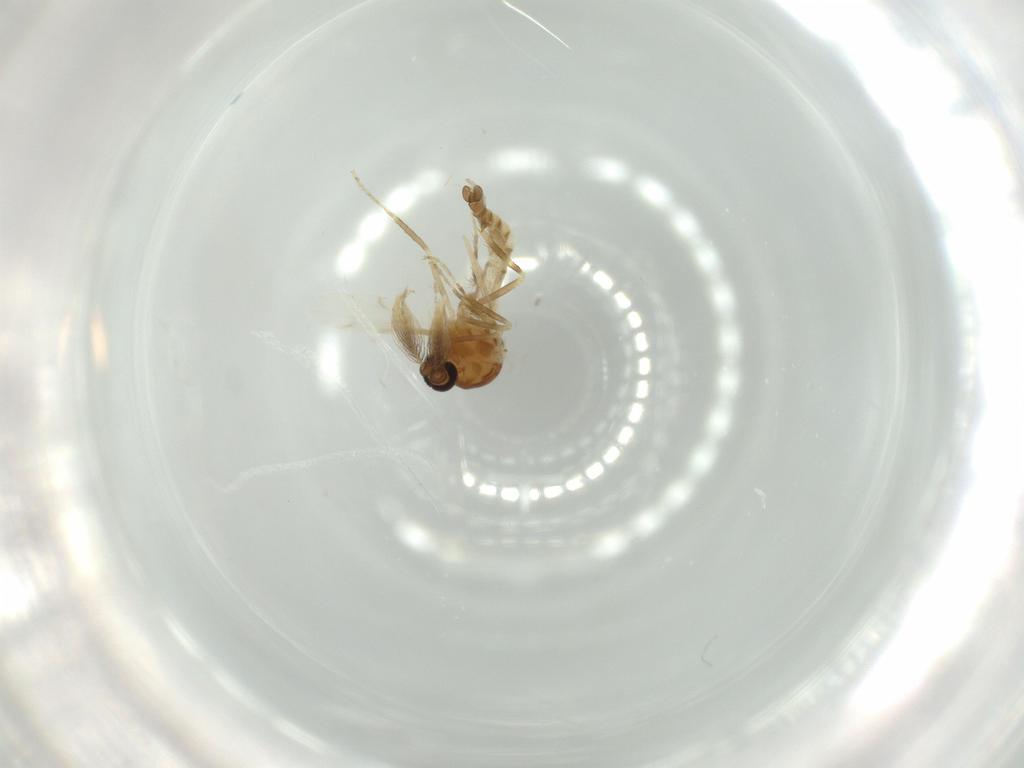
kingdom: Animalia
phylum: Arthropoda
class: Insecta
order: Diptera
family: Ceratopogonidae
